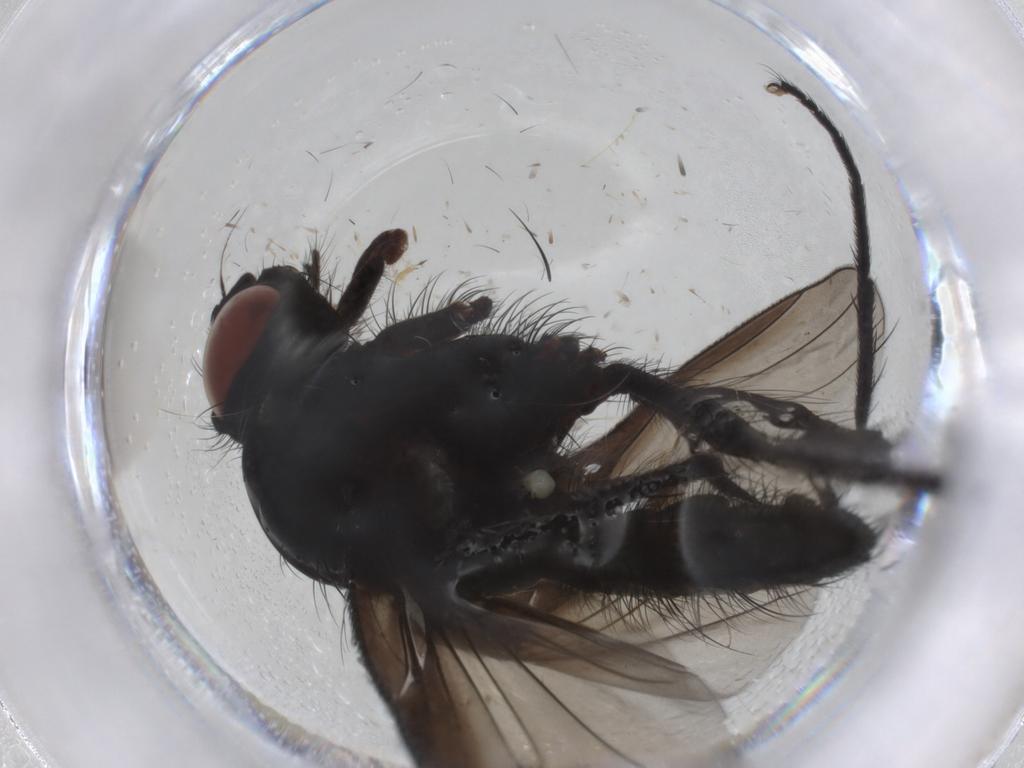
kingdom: Animalia
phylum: Arthropoda
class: Insecta
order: Diptera
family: Anthomyiidae
